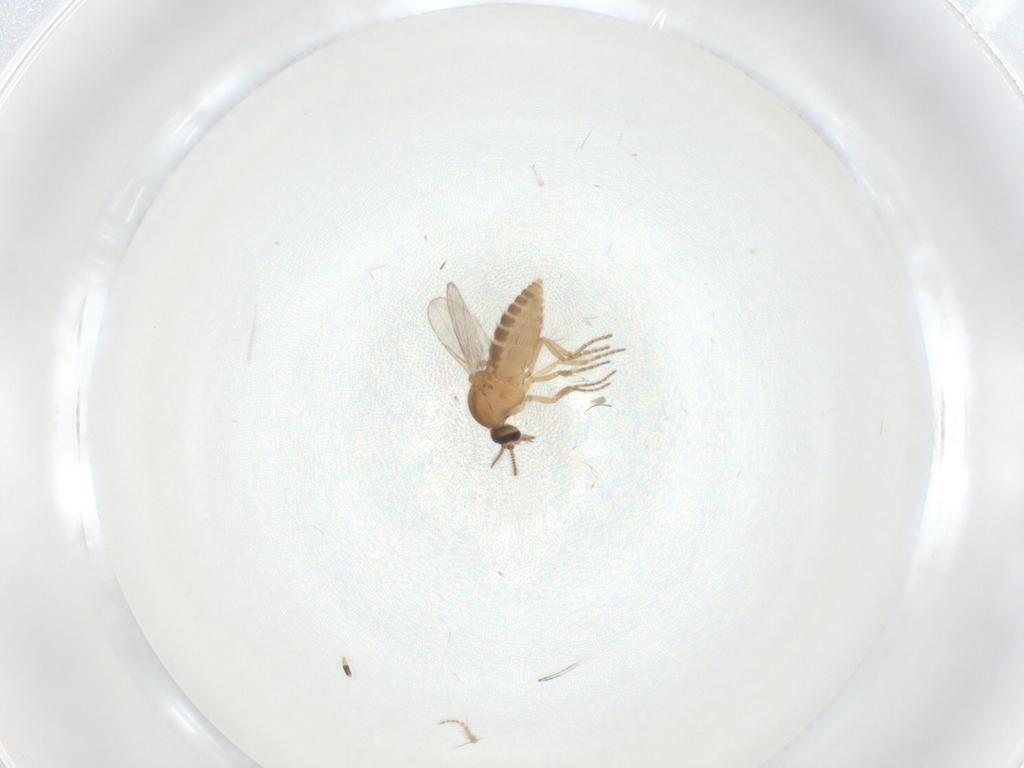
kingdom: Animalia
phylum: Arthropoda
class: Insecta
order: Diptera
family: Ceratopogonidae
